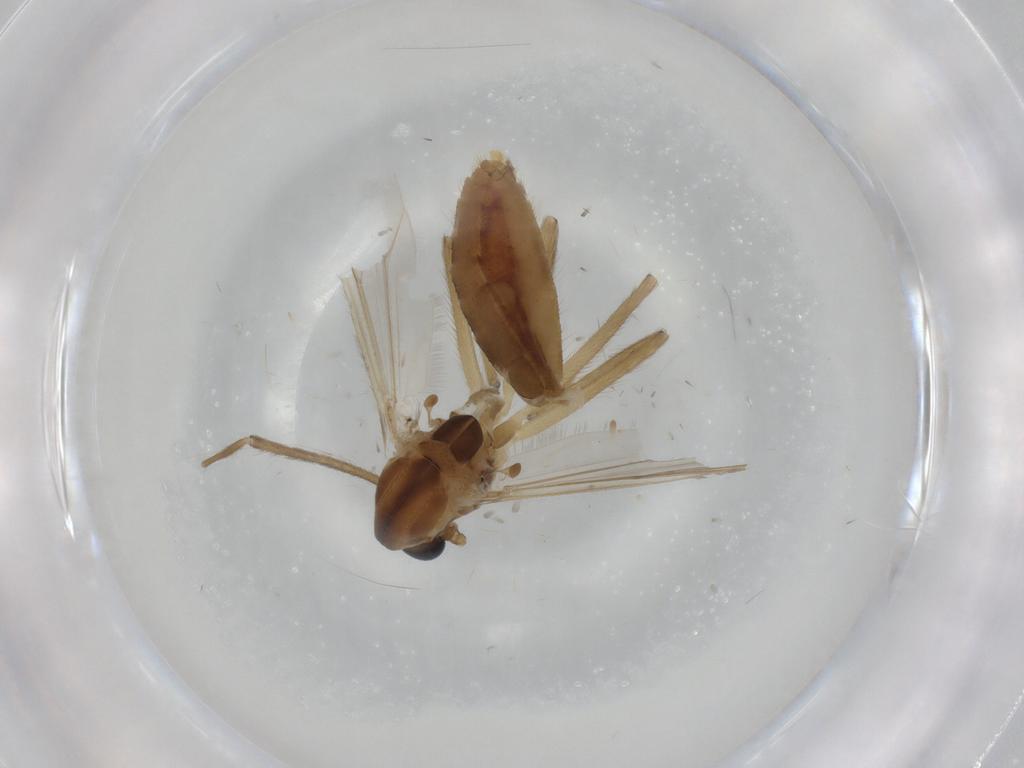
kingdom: Animalia
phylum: Arthropoda
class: Insecta
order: Diptera
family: Chironomidae
